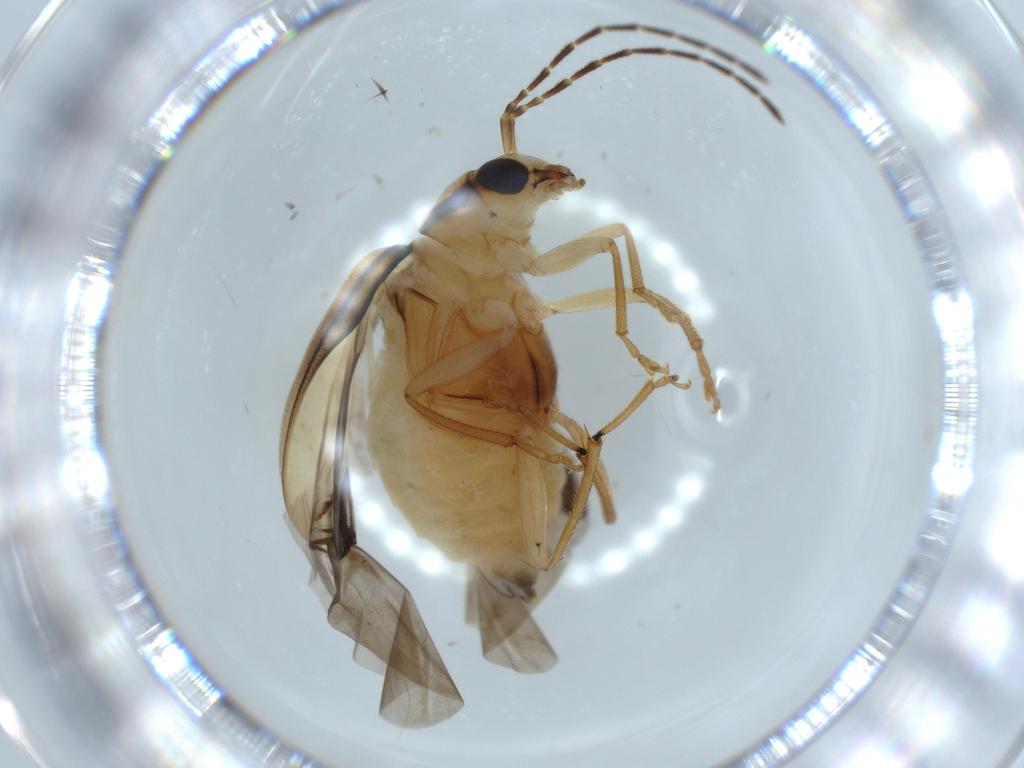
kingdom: Animalia
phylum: Arthropoda
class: Insecta
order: Coleoptera
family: Chrysomelidae
